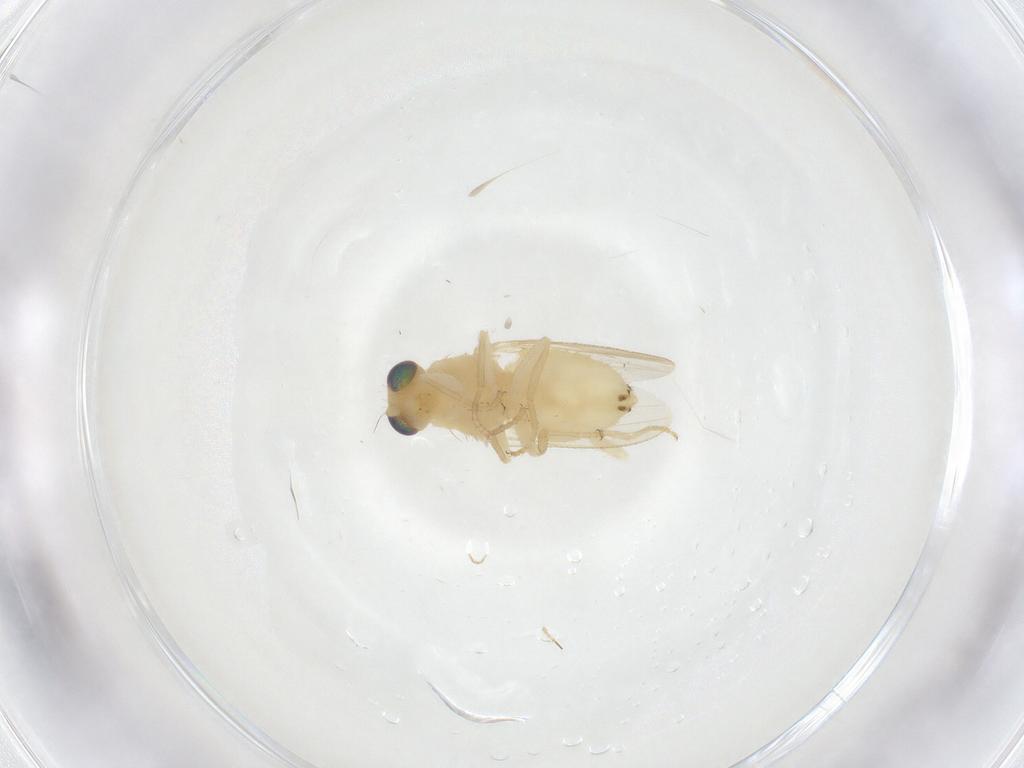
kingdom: Animalia
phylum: Arthropoda
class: Insecta
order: Diptera
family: Chyromyidae
